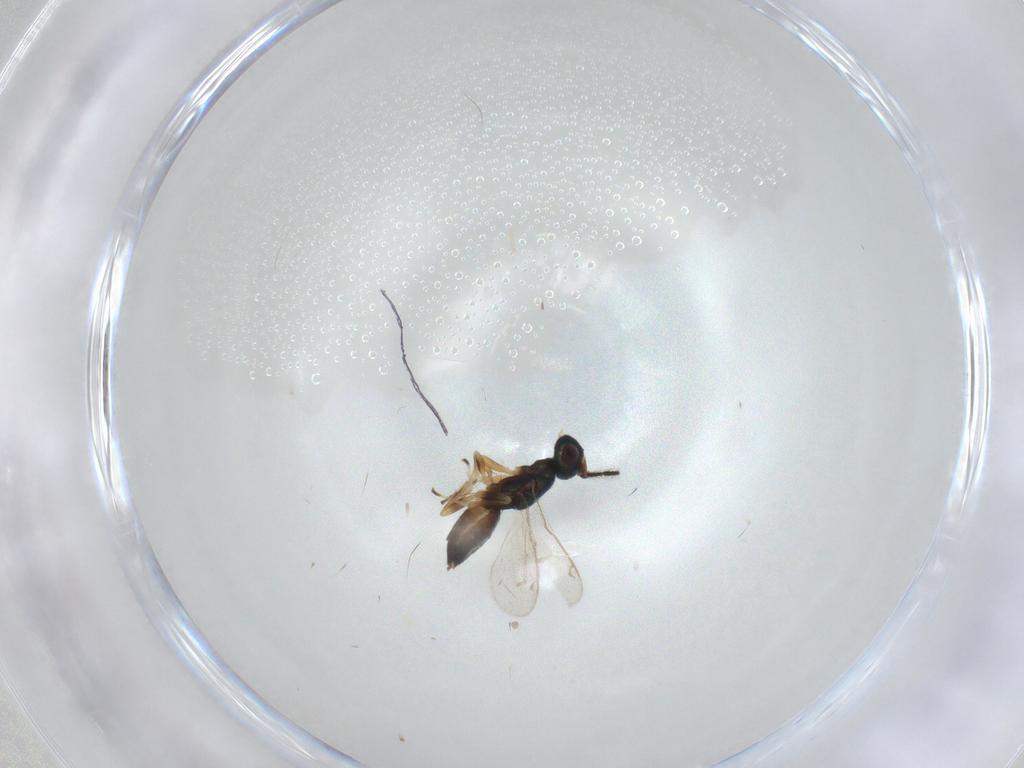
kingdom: Animalia
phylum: Arthropoda
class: Insecta
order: Hymenoptera
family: Eupelmidae
